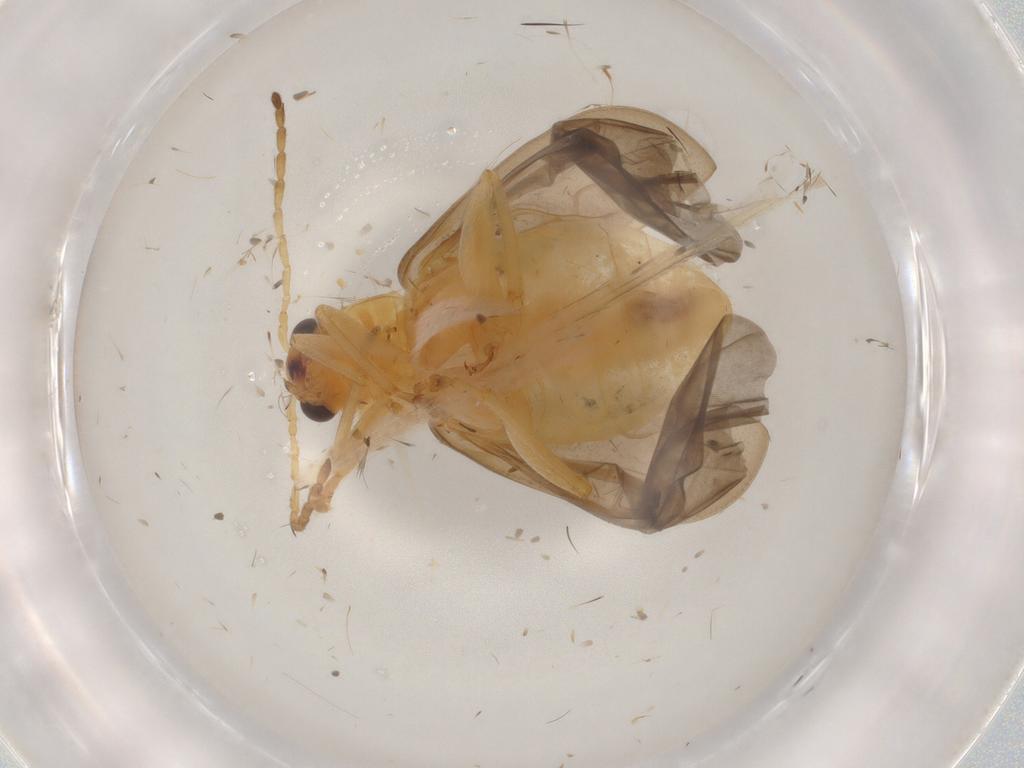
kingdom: Animalia
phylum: Arthropoda
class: Insecta
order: Coleoptera
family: Chrysomelidae
